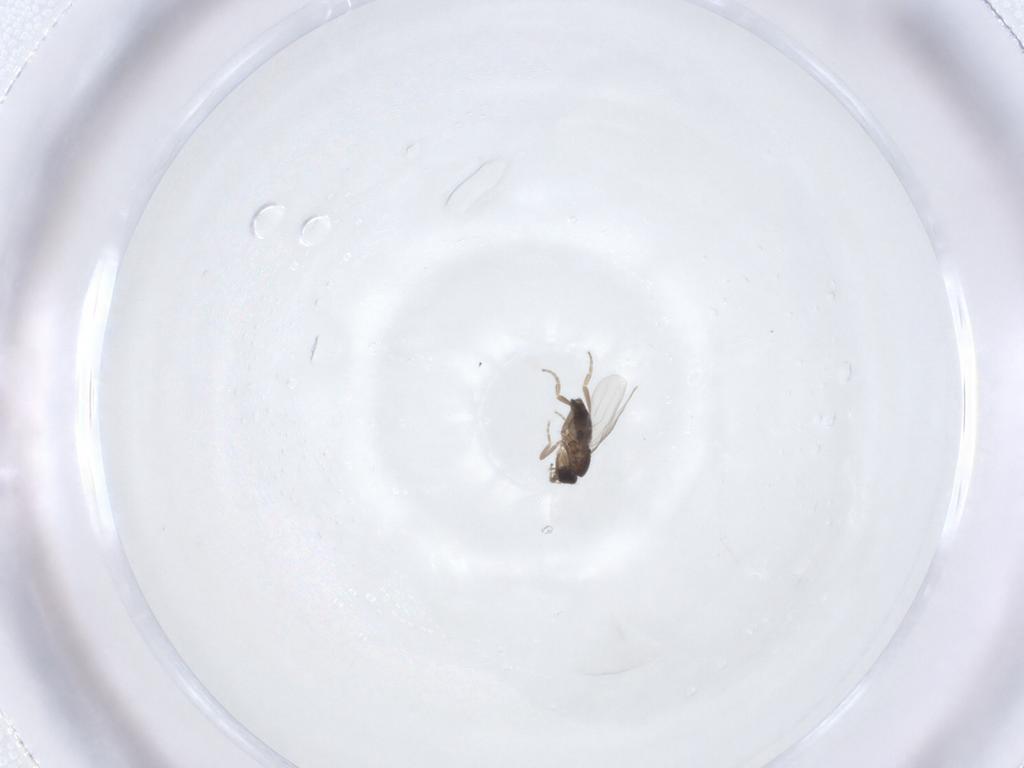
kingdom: Animalia
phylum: Arthropoda
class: Insecta
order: Diptera
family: Phoridae
